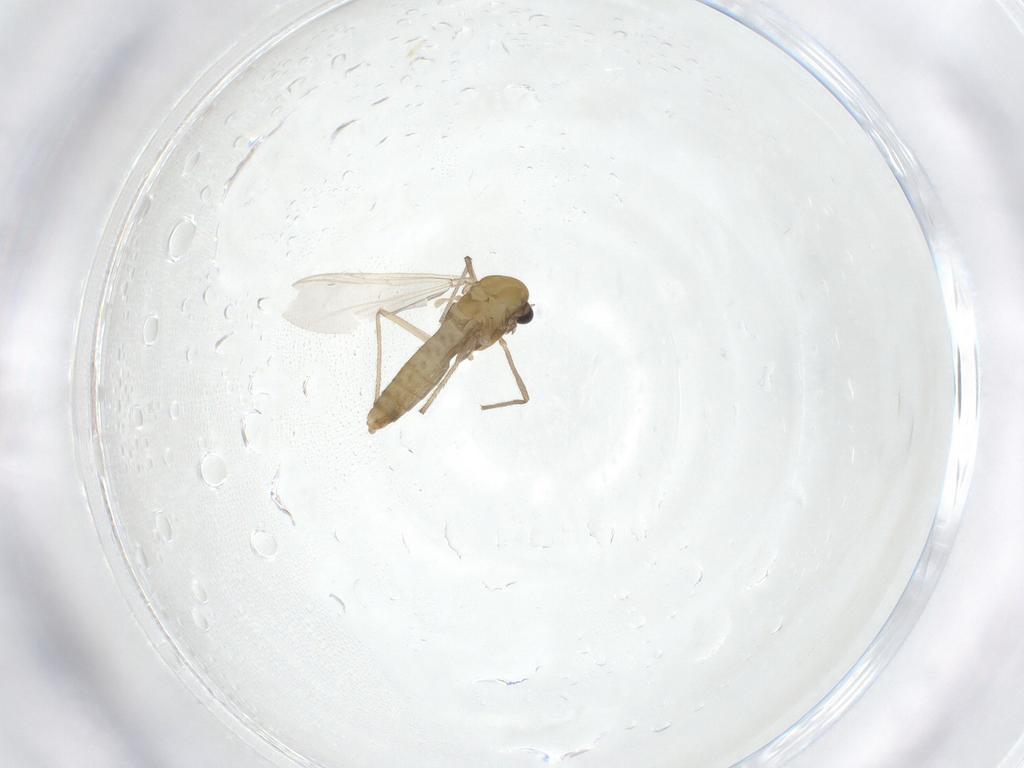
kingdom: Animalia
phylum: Arthropoda
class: Insecta
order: Diptera
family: Chironomidae
